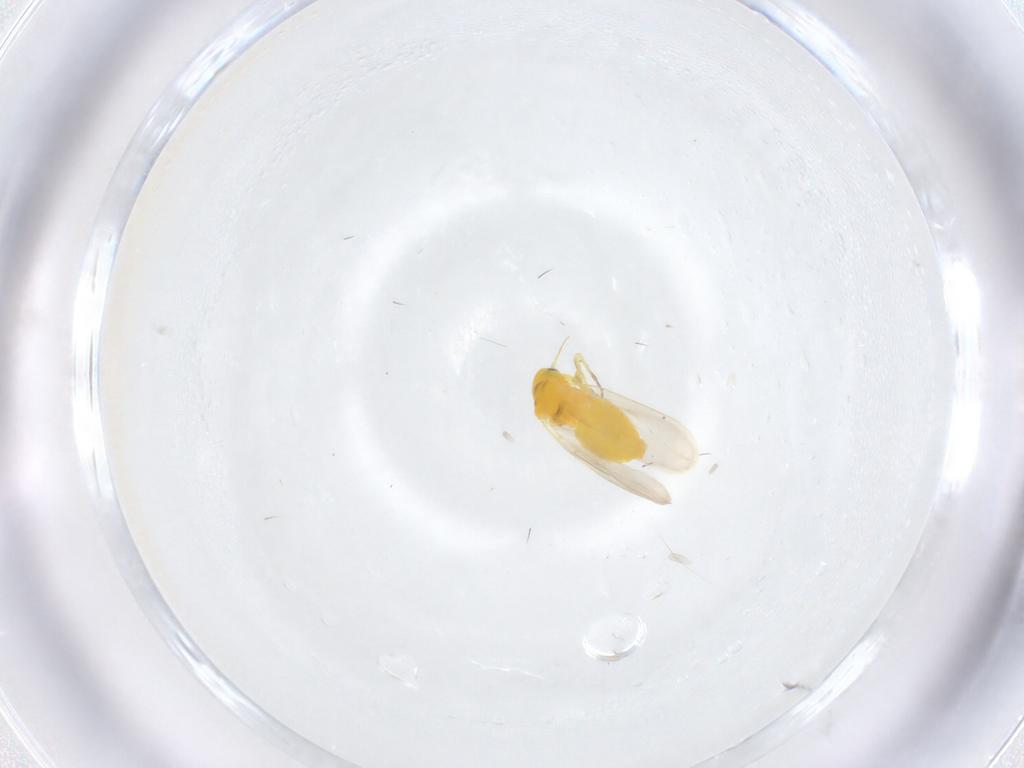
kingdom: Animalia
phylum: Arthropoda
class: Insecta
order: Hemiptera
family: Aleyrodidae
